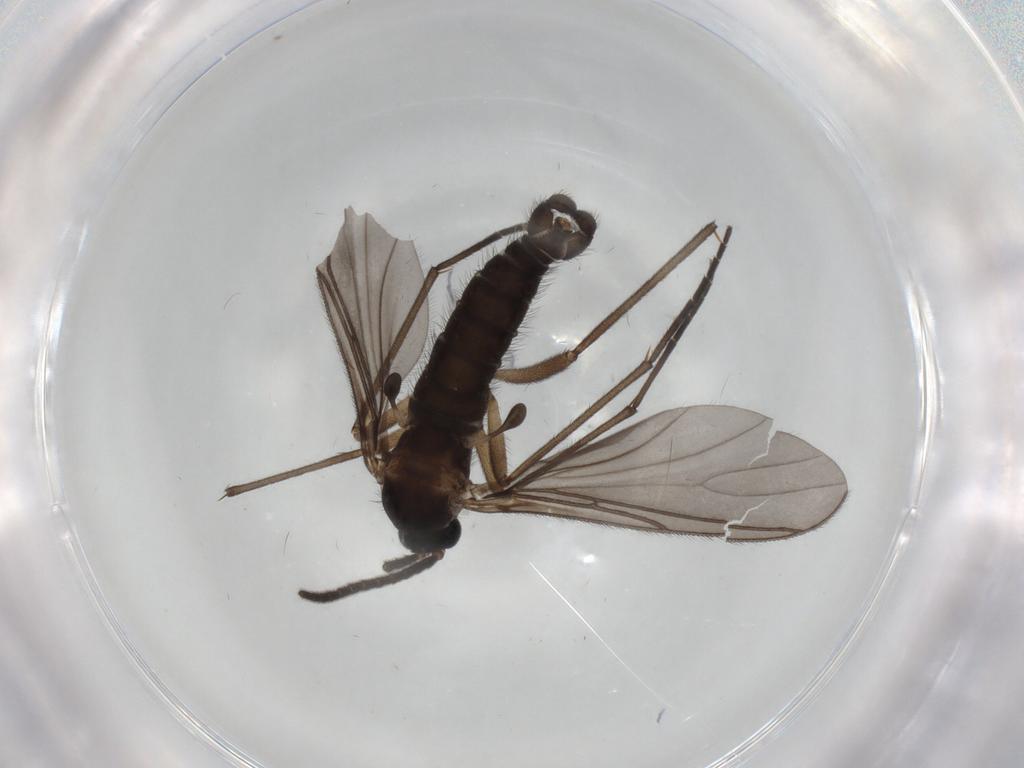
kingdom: Animalia
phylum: Arthropoda
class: Insecta
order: Diptera
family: Sciaridae
